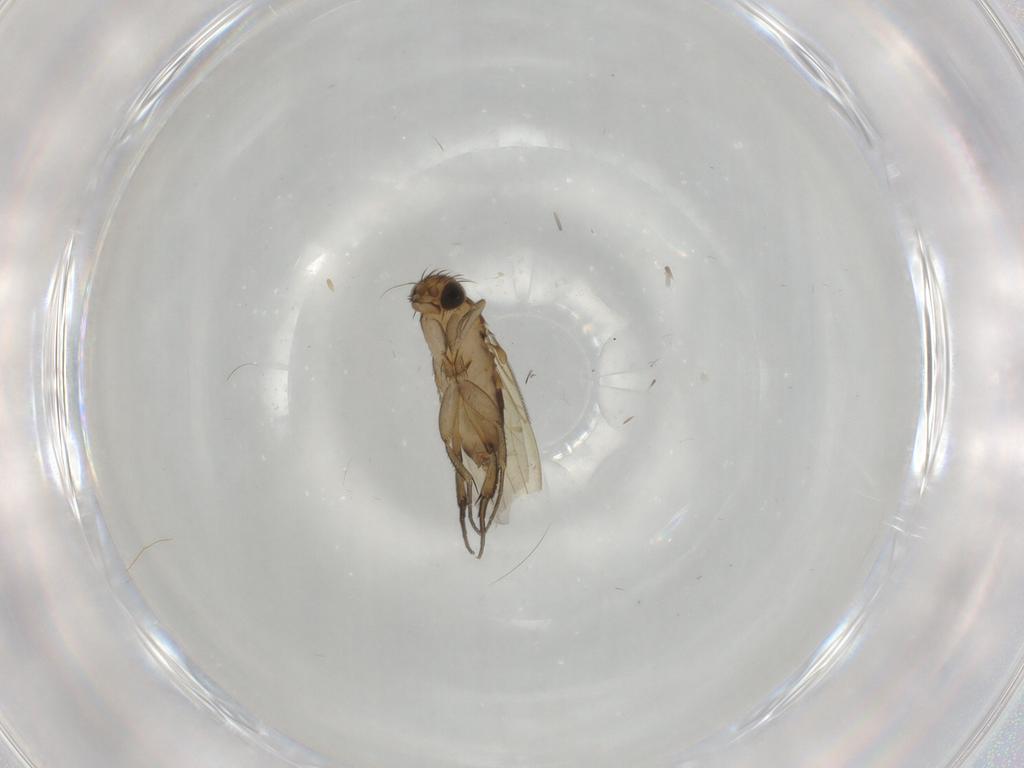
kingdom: Animalia
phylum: Arthropoda
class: Insecta
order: Diptera
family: Phoridae
